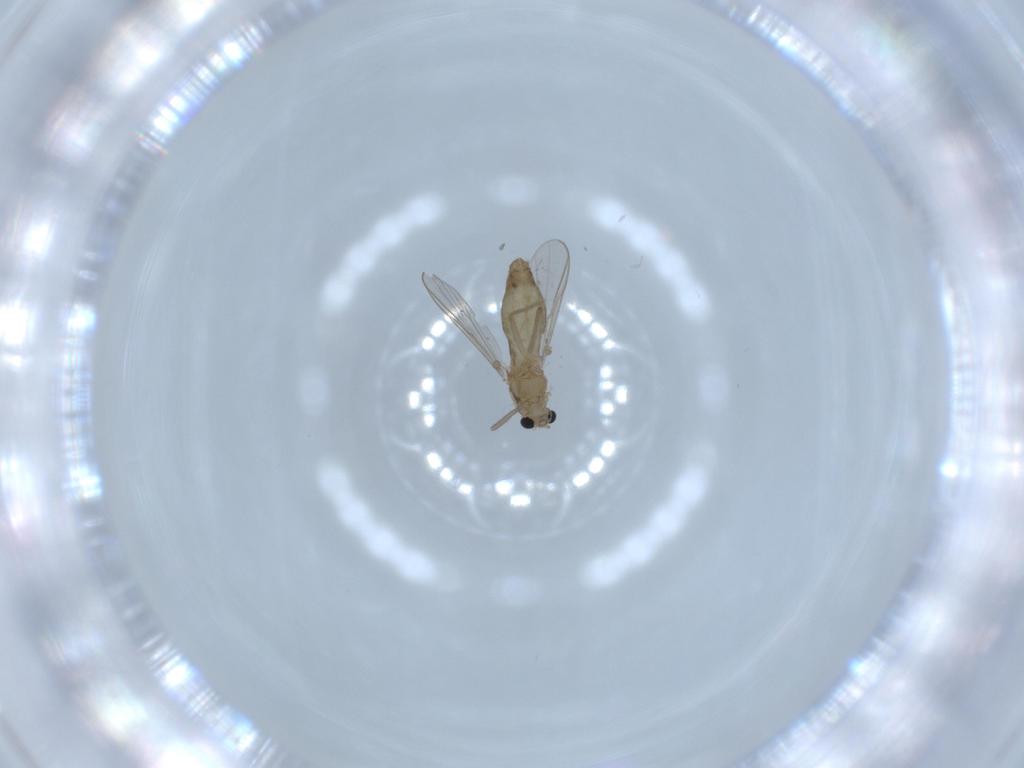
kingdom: Animalia
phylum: Arthropoda
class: Insecta
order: Diptera
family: Chironomidae
